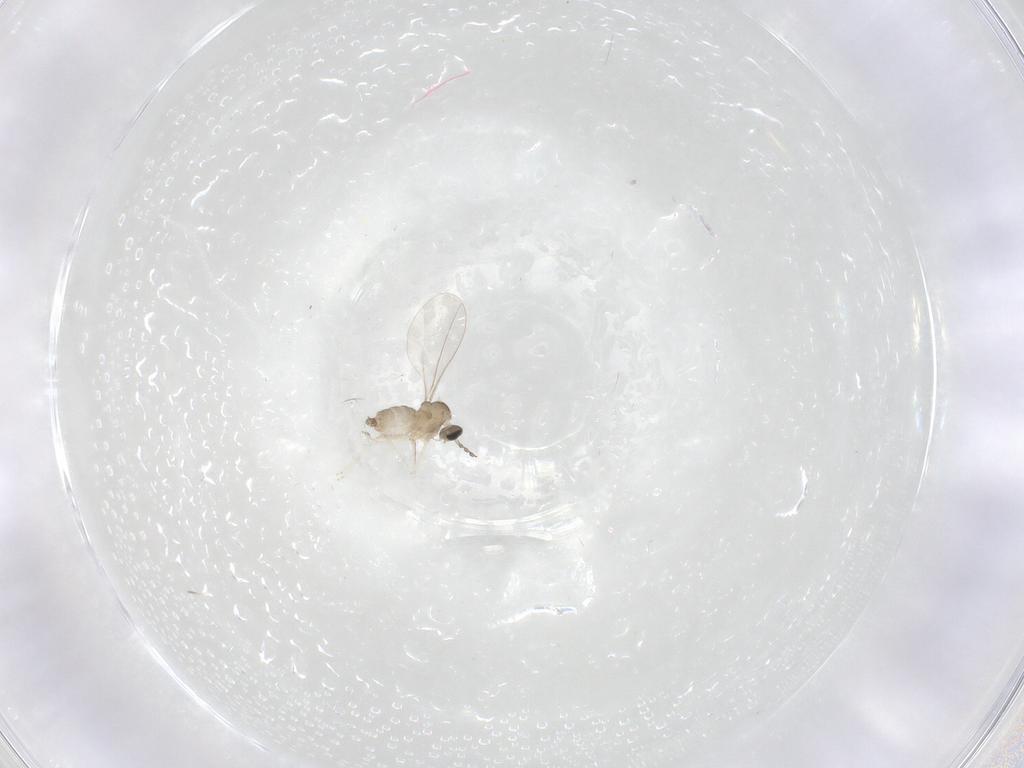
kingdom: Animalia
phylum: Arthropoda
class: Insecta
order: Diptera
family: Cecidomyiidae
